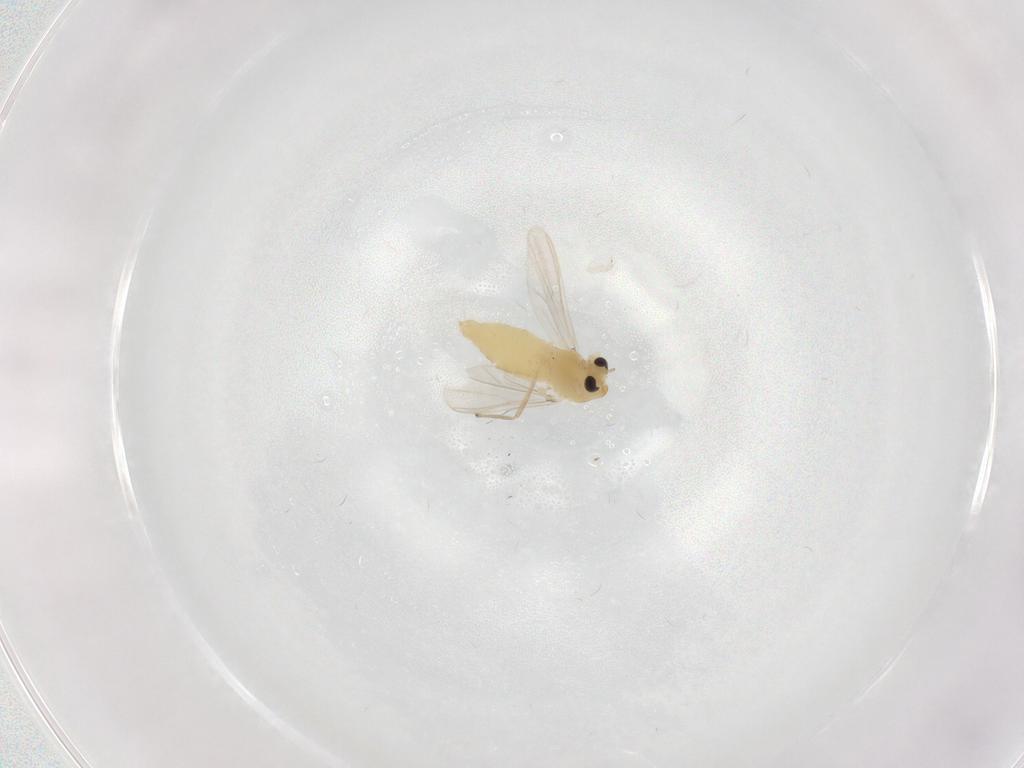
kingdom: Animalia
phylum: Arthropoda
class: Insecta
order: Diptera
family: Chironomidae
